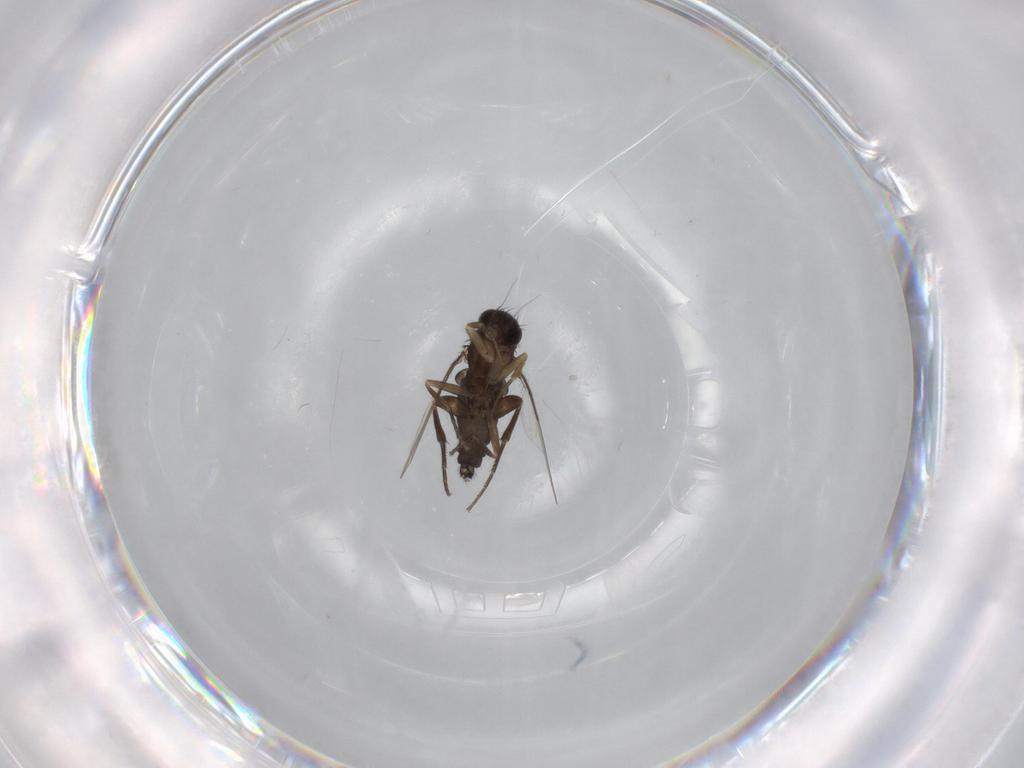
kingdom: Animalia
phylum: Arthropoda
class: Insecta
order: Diptera
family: Phoridae
